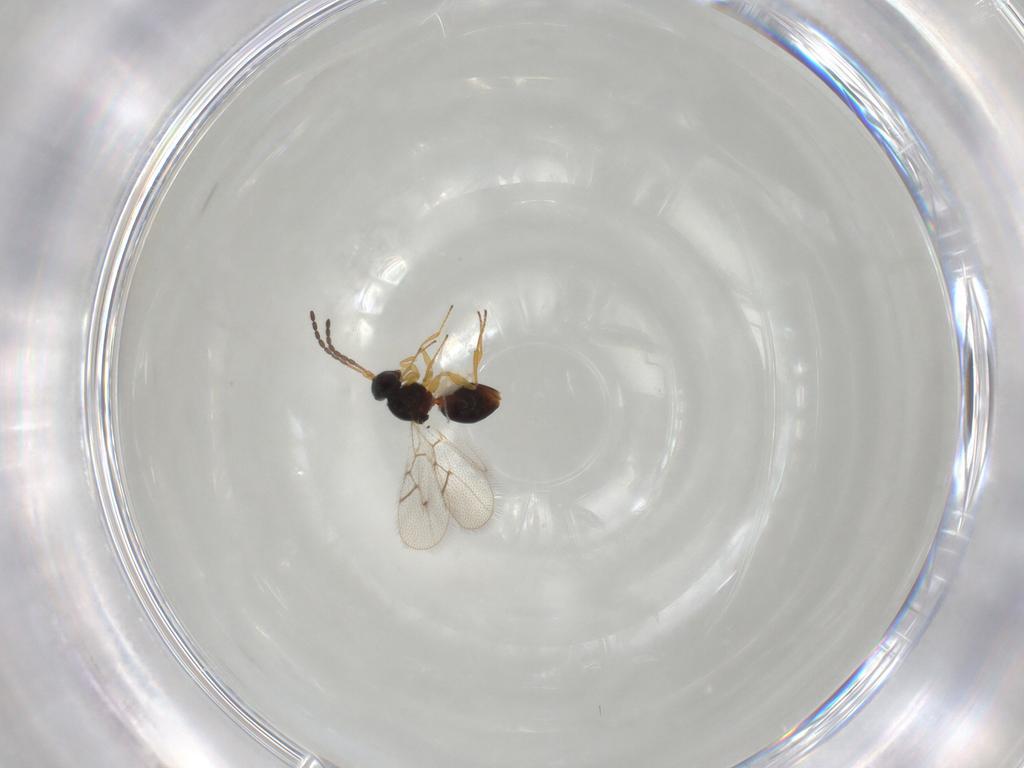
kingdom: Animalia
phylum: Arthropoda
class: Insecta
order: Hymenoptera
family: Figitidae
